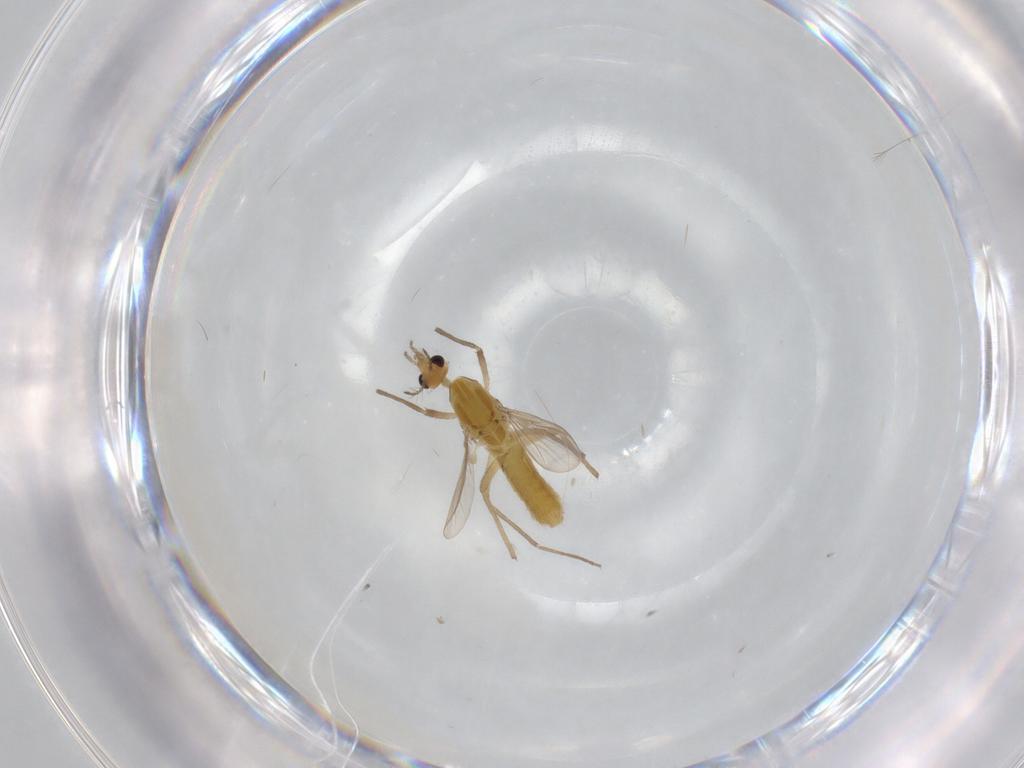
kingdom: Animalia
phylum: Arthropoda
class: Insecta
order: Diptera
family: Chironomidae
